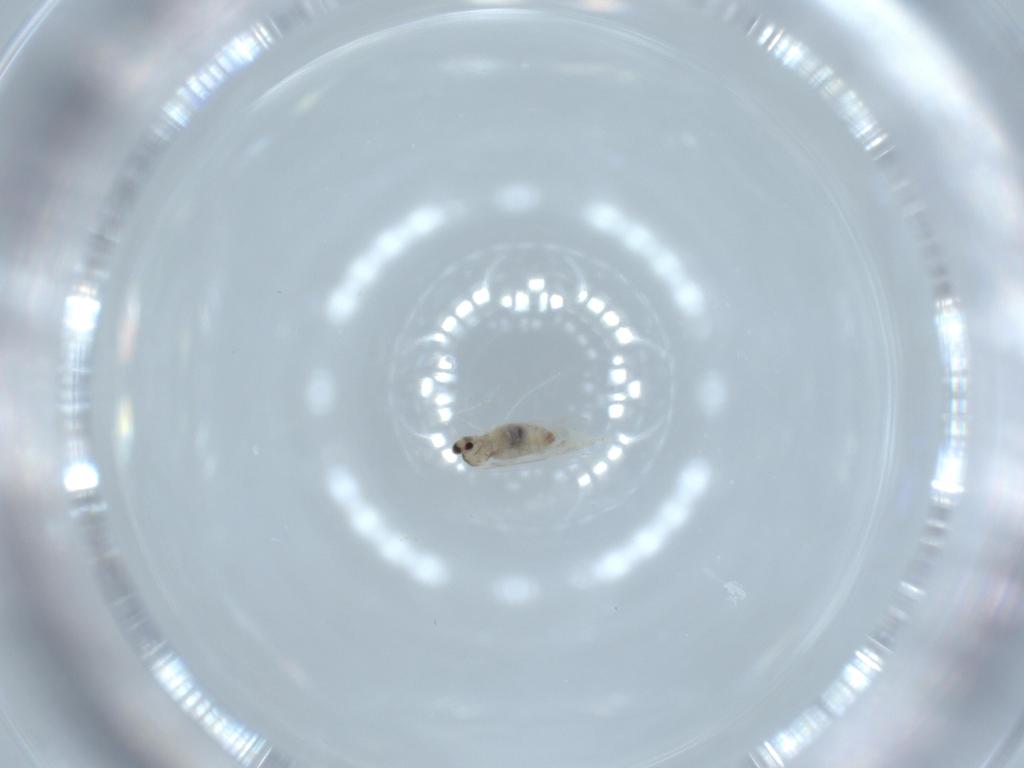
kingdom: Animalia
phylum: Arthropoda
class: Insecta
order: Diptera
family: Cecidomyiidae
